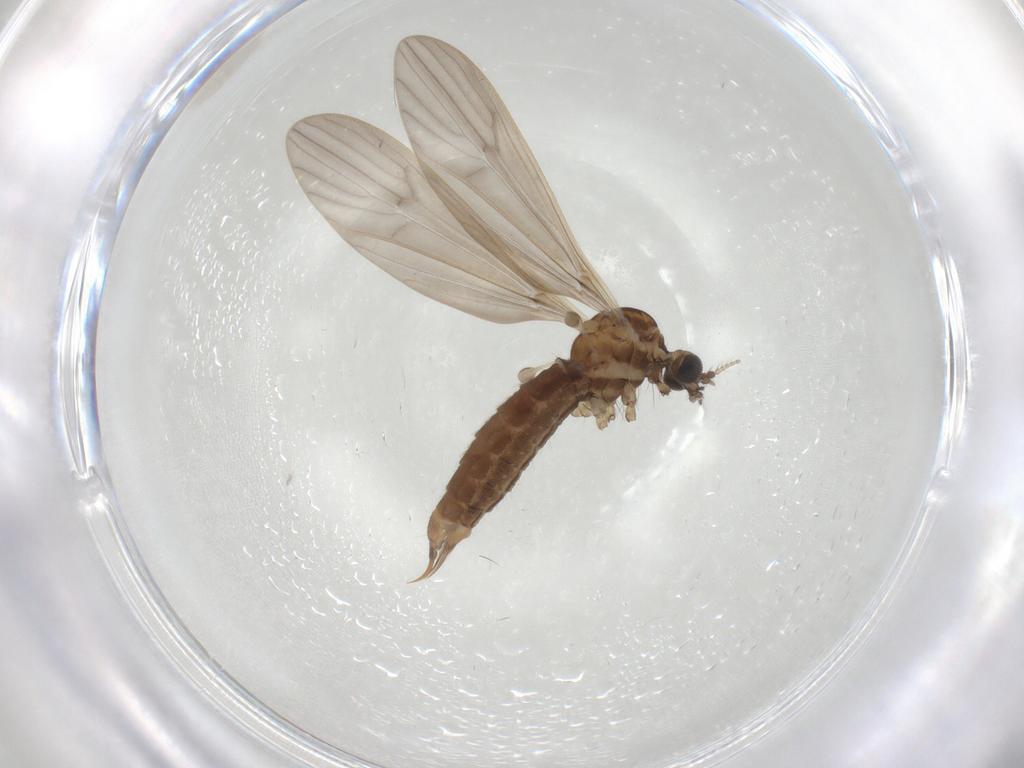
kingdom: Animalia
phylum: Arthropoda
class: Insecta
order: Diptera
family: Limoniidae
